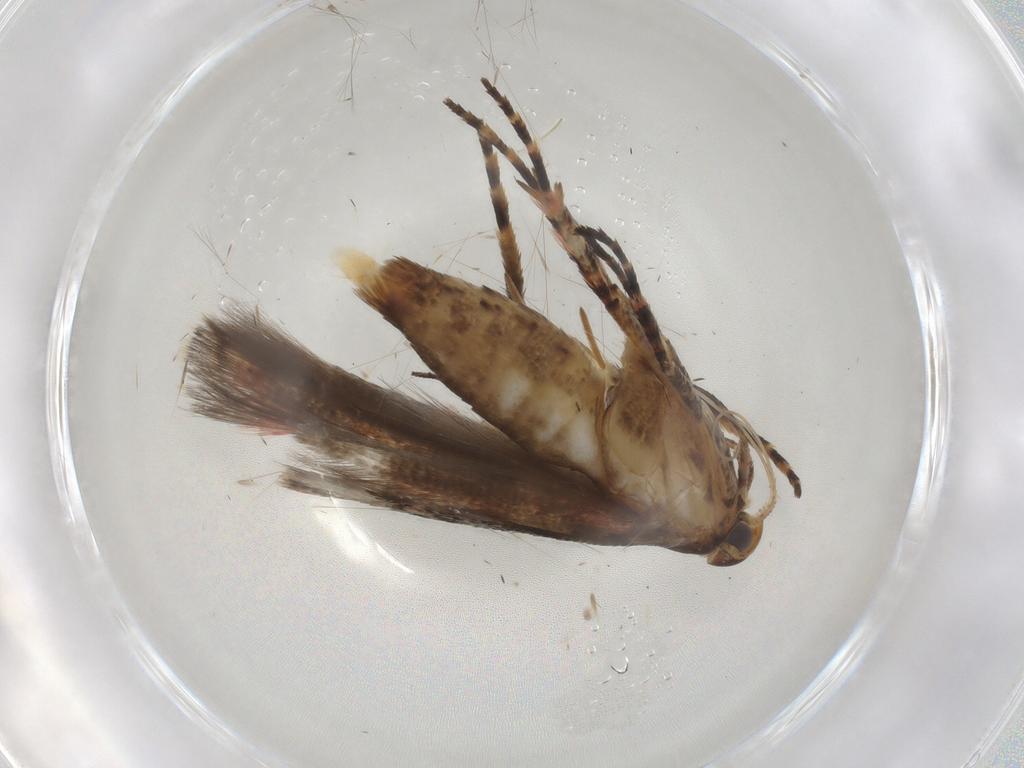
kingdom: Animalia
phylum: Arthropoda
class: Insecta
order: Lepidoptera
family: Gelechiidae
